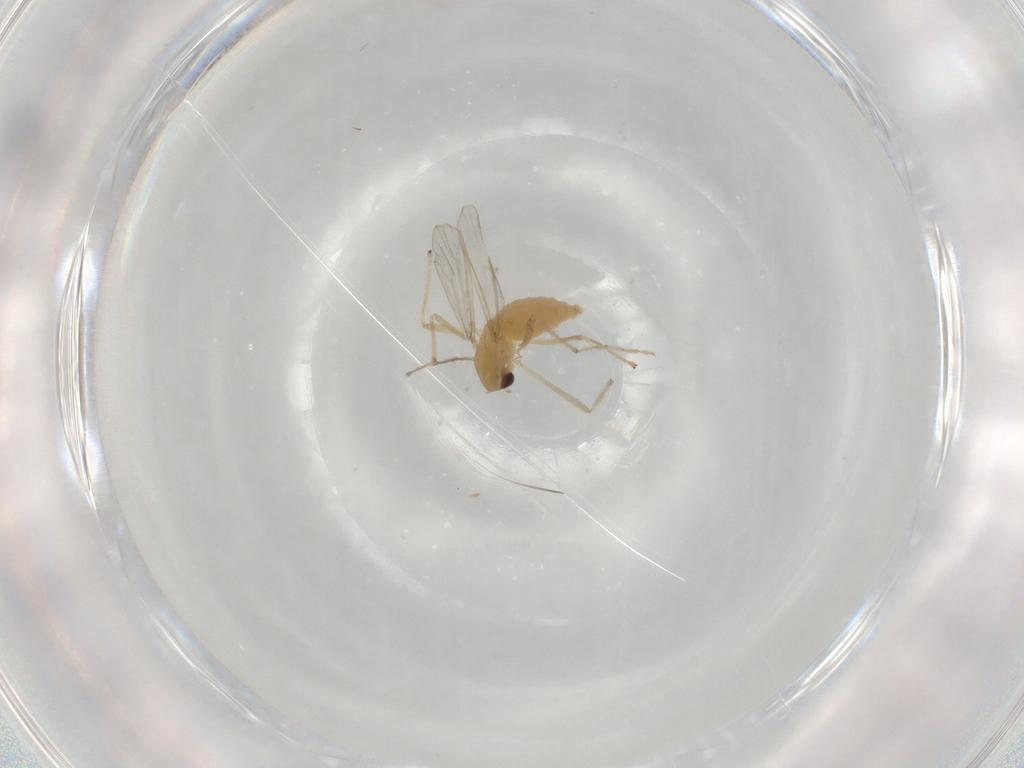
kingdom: Animalia
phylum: Arthropoda
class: Insecta
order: Diptera
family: Chironomidae
